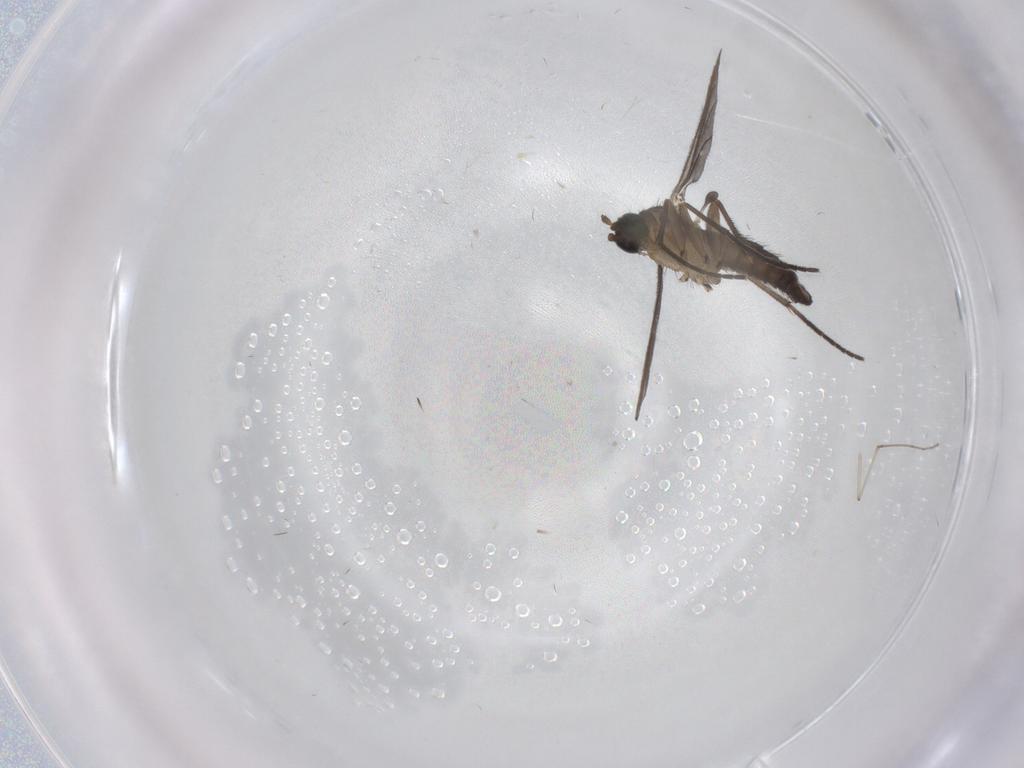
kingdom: Animalia
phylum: Arthropoda
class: Insecta
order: Diptera
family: Sciaridae
